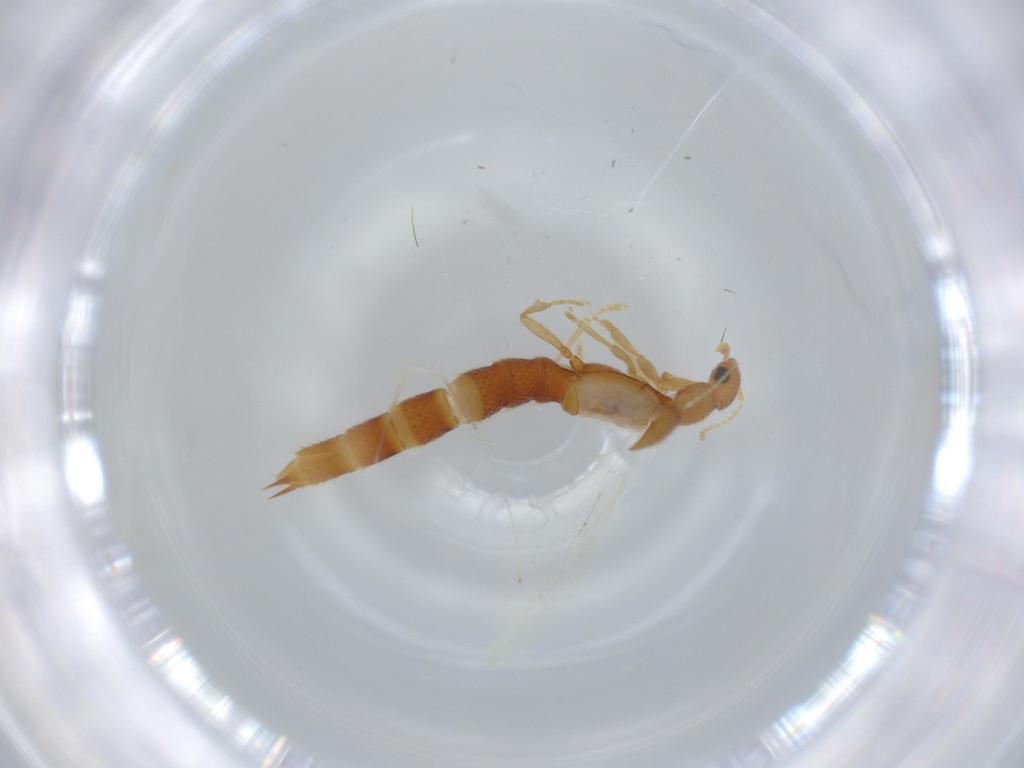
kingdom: Animalia
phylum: Arthropoda
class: Insecta
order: Coleoptera
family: Staphylinidae
